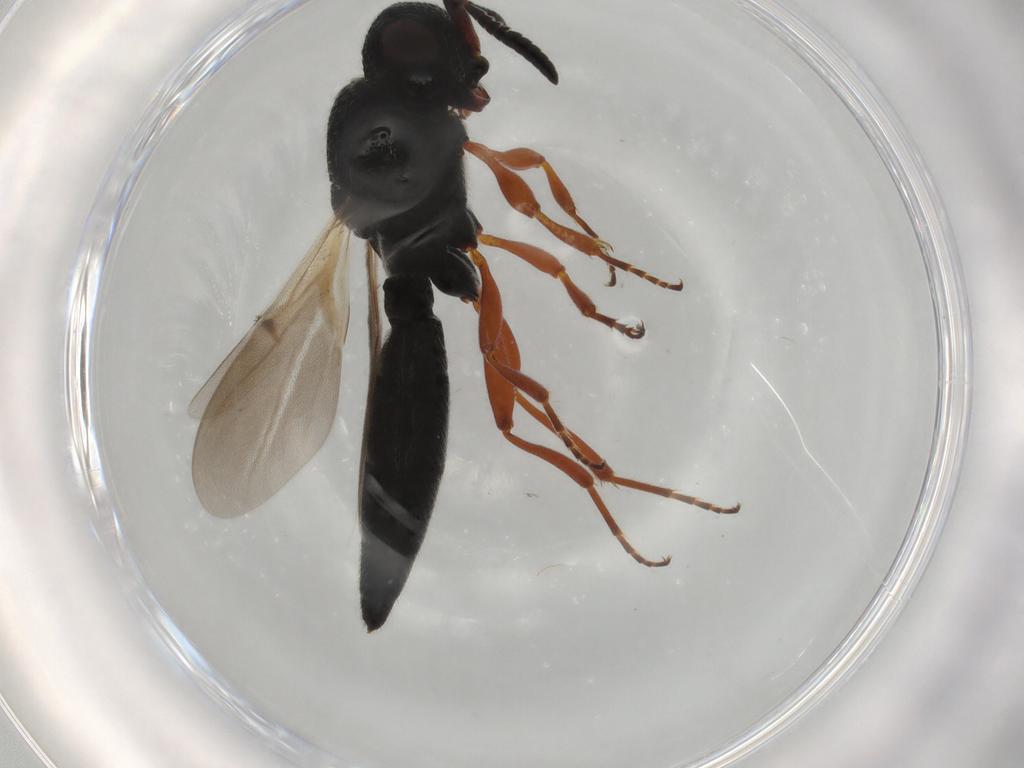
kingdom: Animalia
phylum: Arthropoda
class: Insecta
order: Hymenoptera
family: Scelionidae
